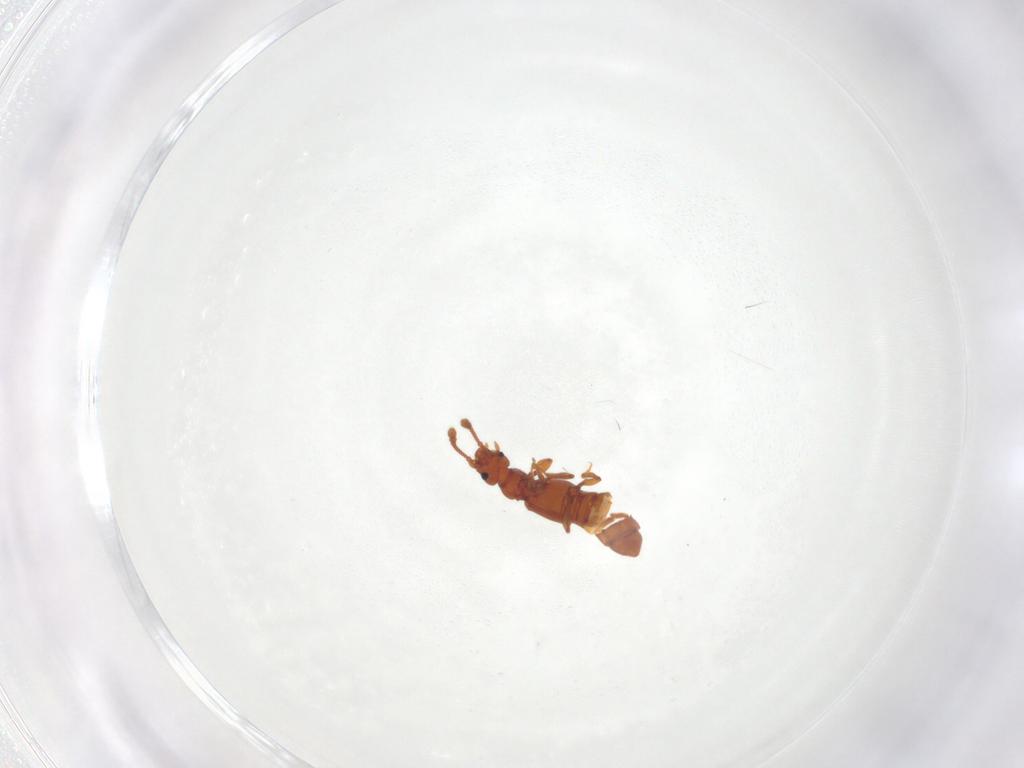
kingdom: Animalia
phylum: Arthropoda
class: Insecta
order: Coleoptera
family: Staphylinidae
